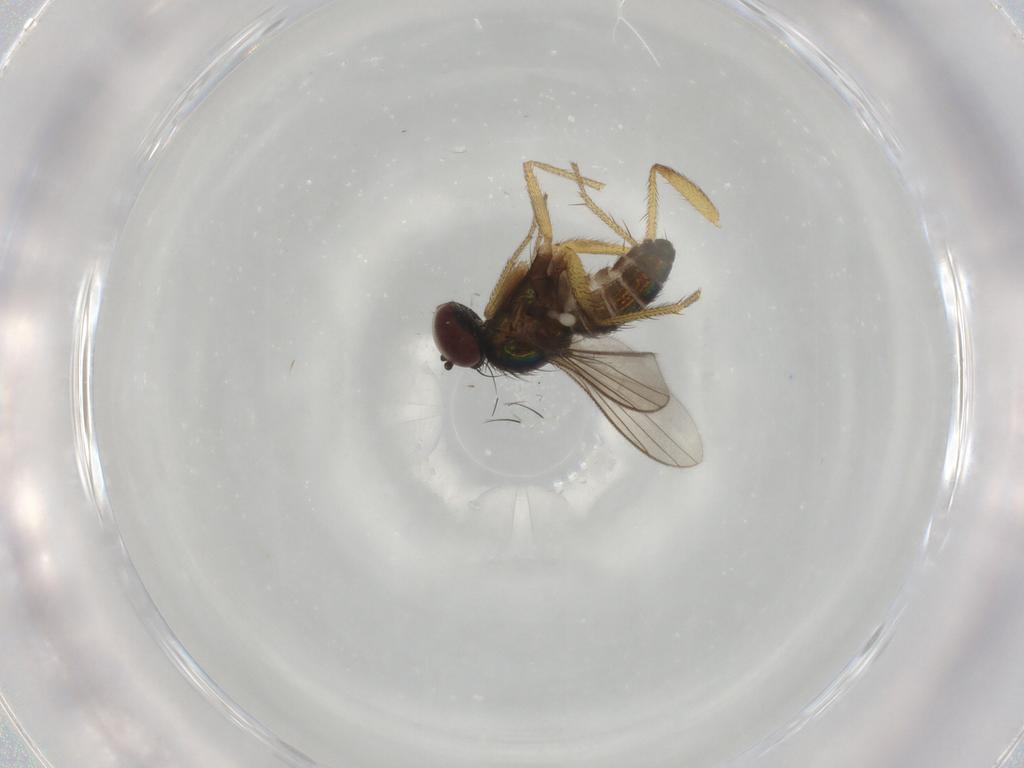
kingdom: Animalia
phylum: Arthropoda
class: Insecta
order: Diptera
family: Dolichopodidae
